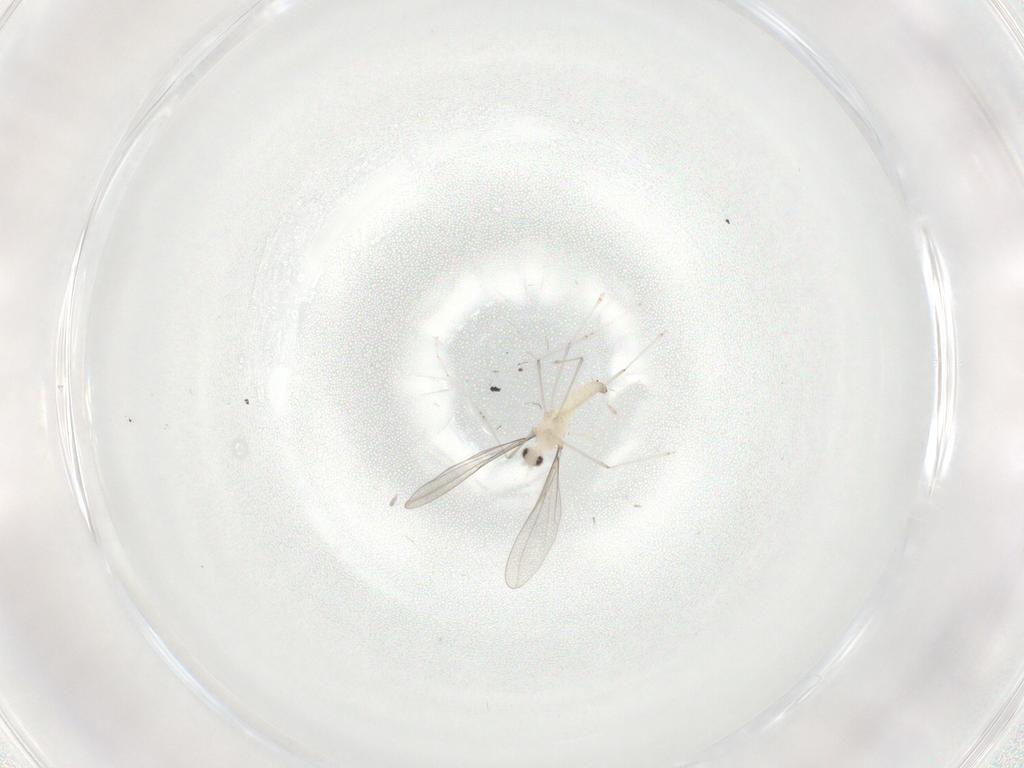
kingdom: Animalia
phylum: Arthropoda
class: Insecta
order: Diptera
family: Cecidomyiidae
